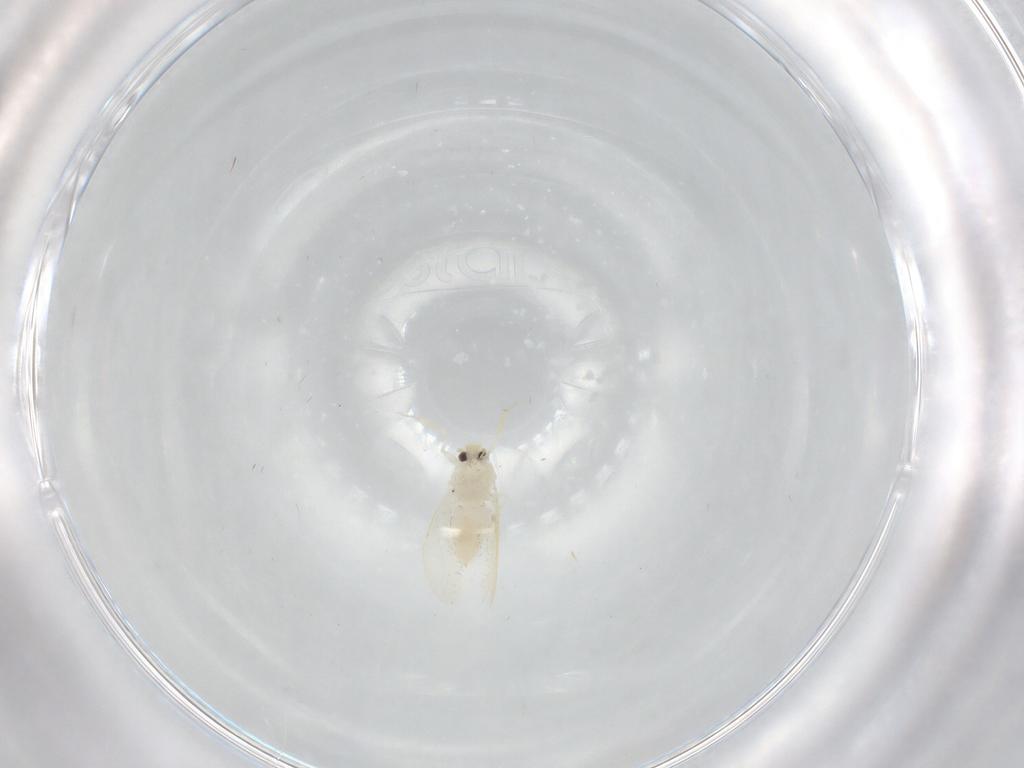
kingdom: Animalia
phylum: Arthropoda
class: Insecta
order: Hemiptera
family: Aleyrodidae
